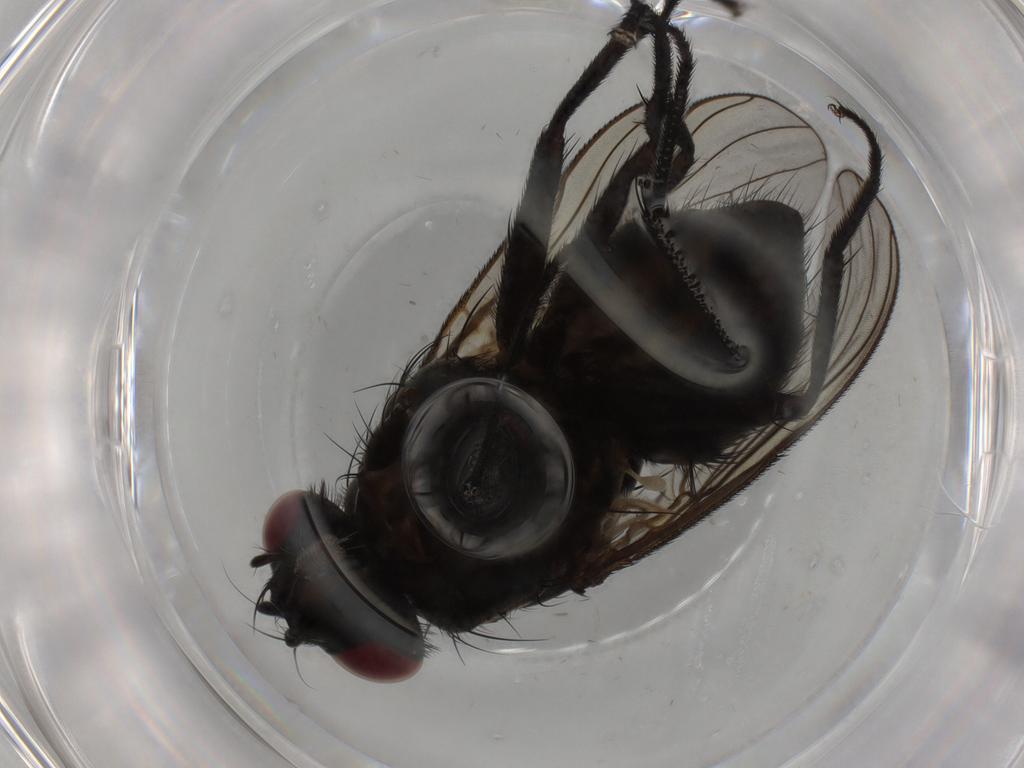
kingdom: Animalia
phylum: Arthropoda
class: Insecta
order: Diptera
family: Muscidae
